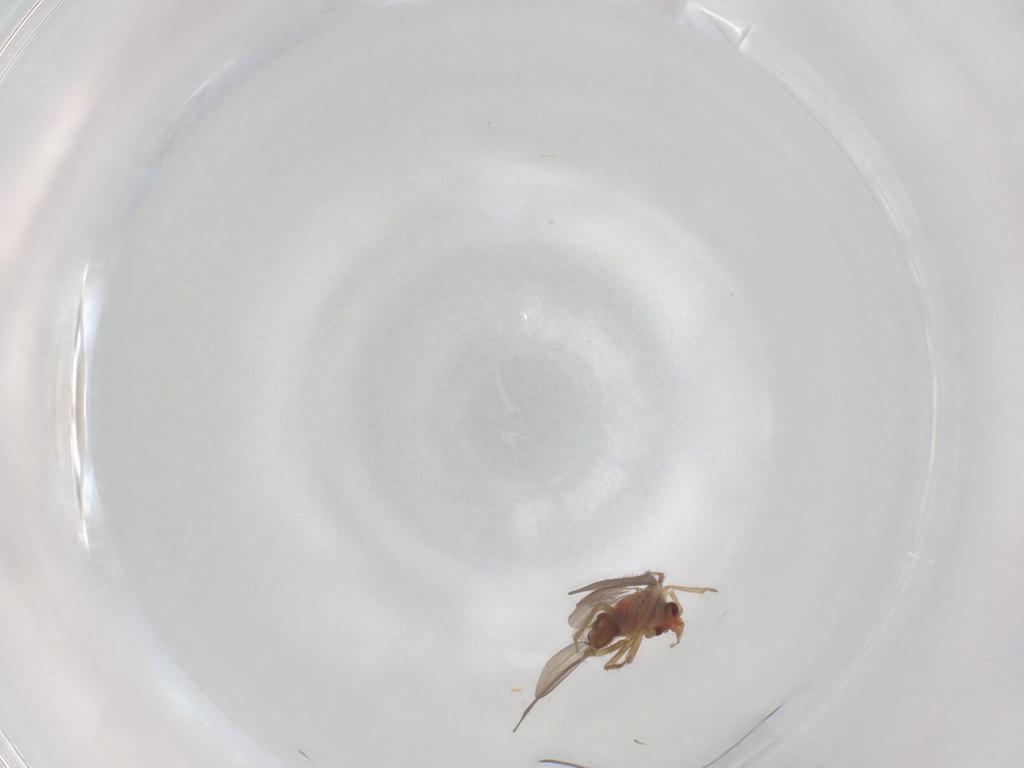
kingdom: Animalia
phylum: Arthropoda
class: Insecta
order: Hemiptera
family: Ceratocombidae
